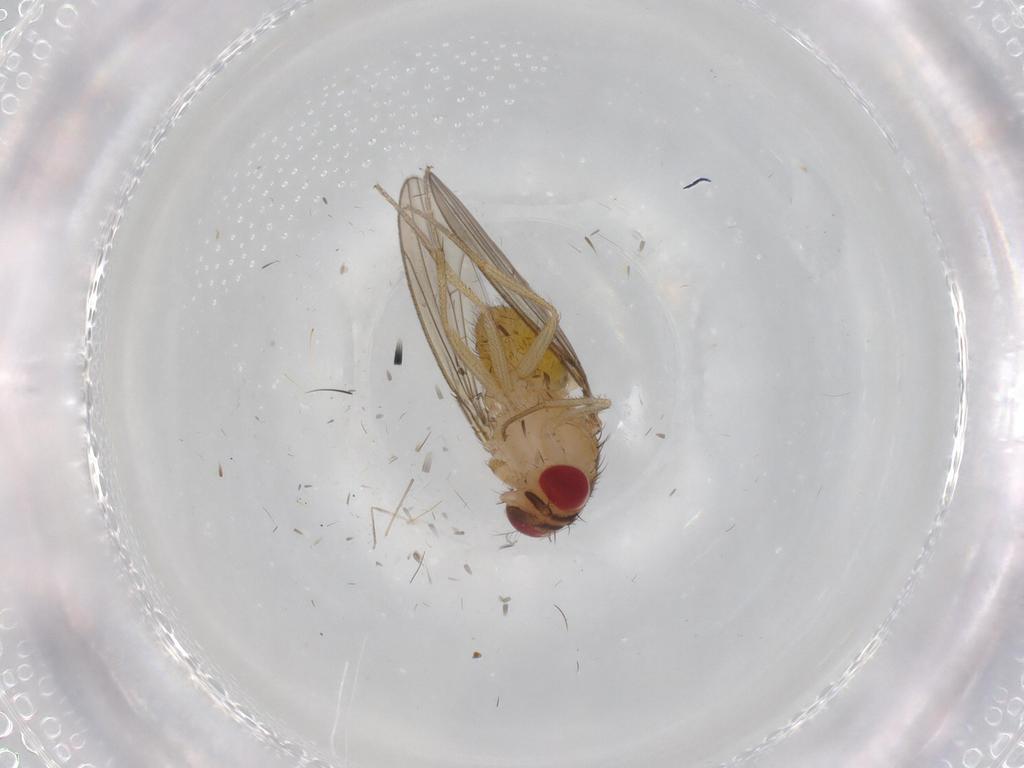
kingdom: Animalia
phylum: Arthropoda
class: Insecta
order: Diptera
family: Drosophilidae
